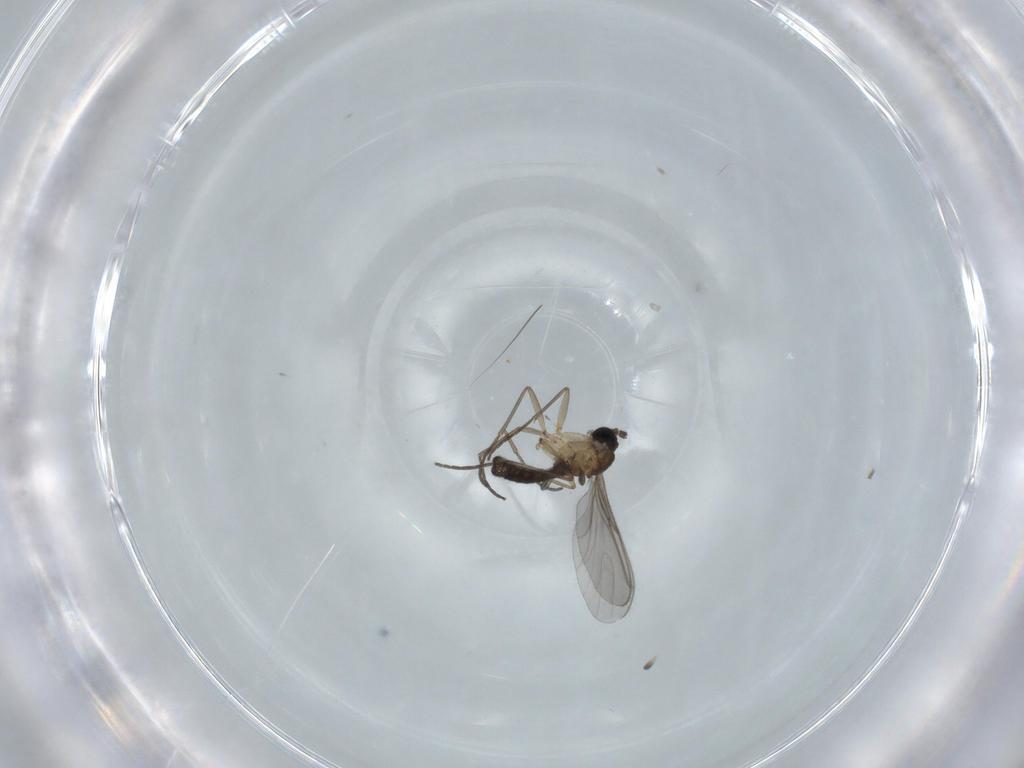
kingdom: Animalia
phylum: Arthropoda
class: Insecta
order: Diptera
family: Sciaridae
